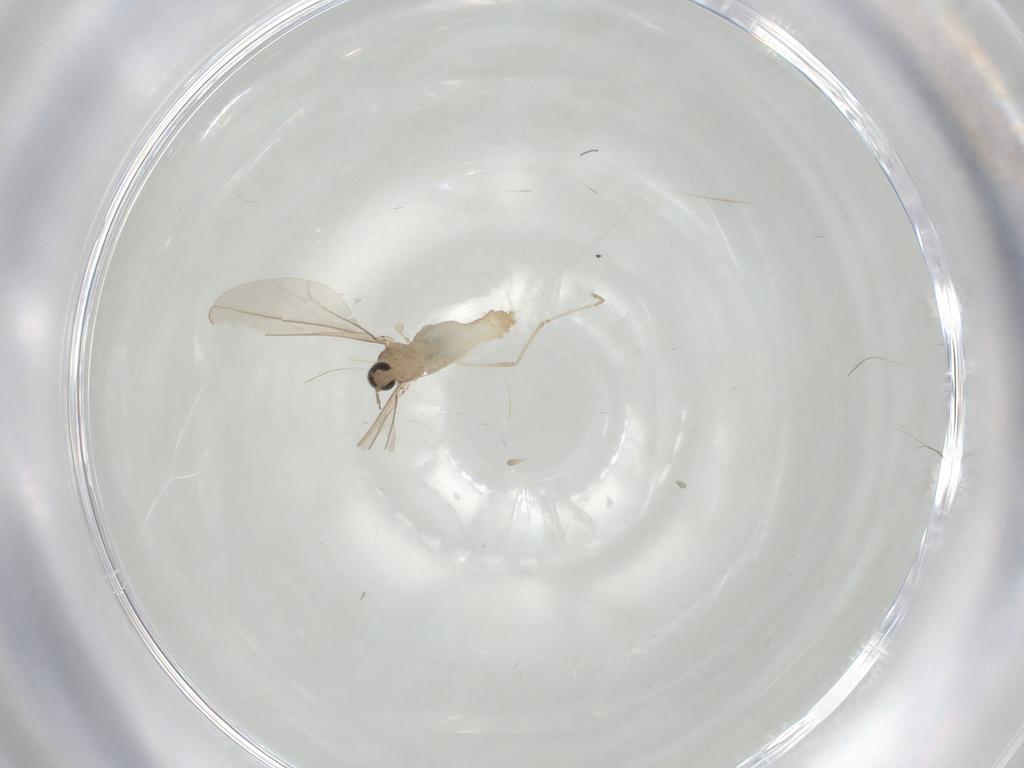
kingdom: Animalia
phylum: Arthropoda
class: Insecta
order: Diptera
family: Cecidomyiidae
